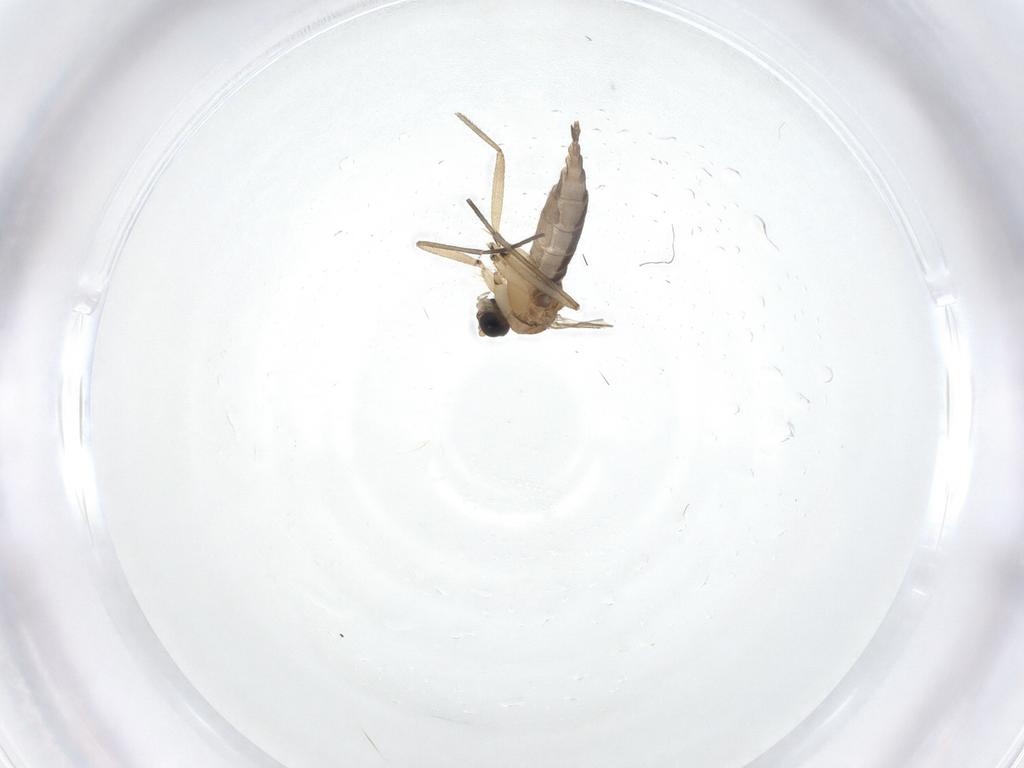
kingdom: Animalia
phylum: Arthropoda
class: Insecta
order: Diptera
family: Sciaridae
